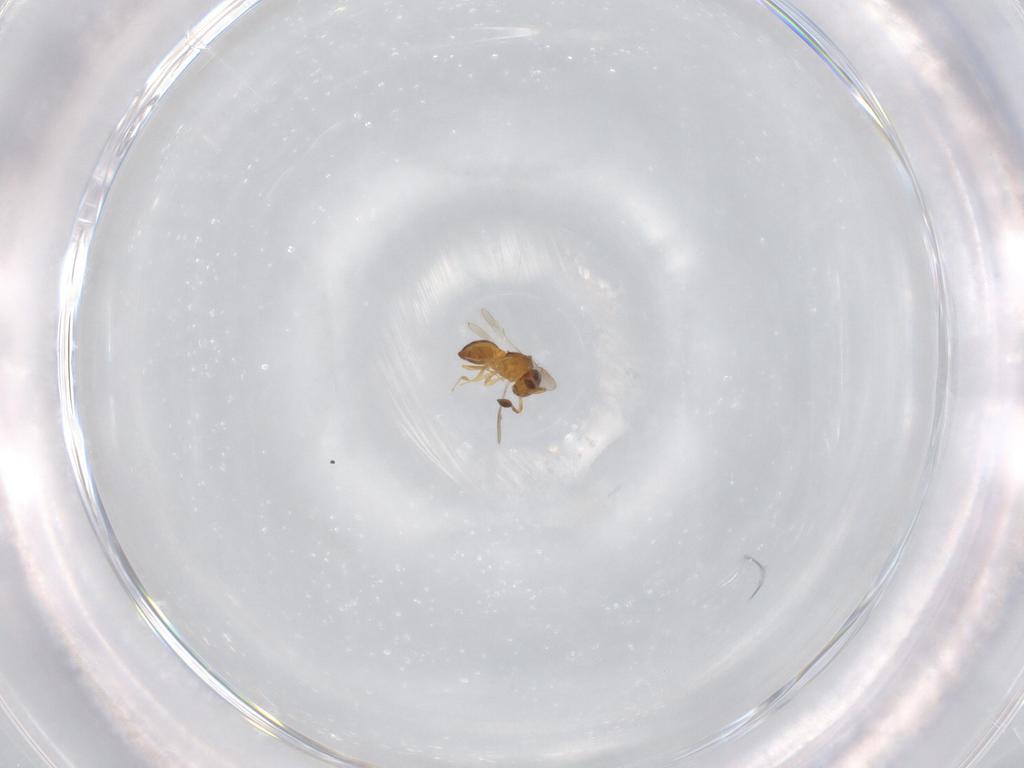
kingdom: Animalia
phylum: Arthropoda
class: Insecta
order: Hymenoptera
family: Scelionidae
